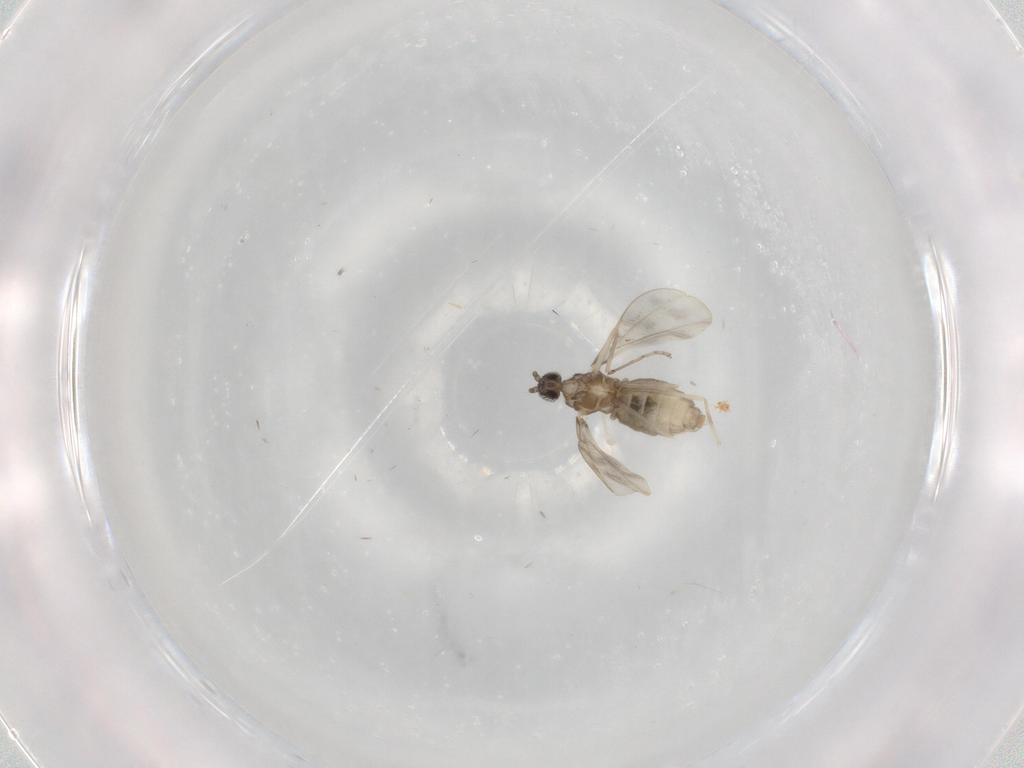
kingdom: Animalia
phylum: Arthropoda
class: Insecta
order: Diptera
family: Cecidomyiidae
